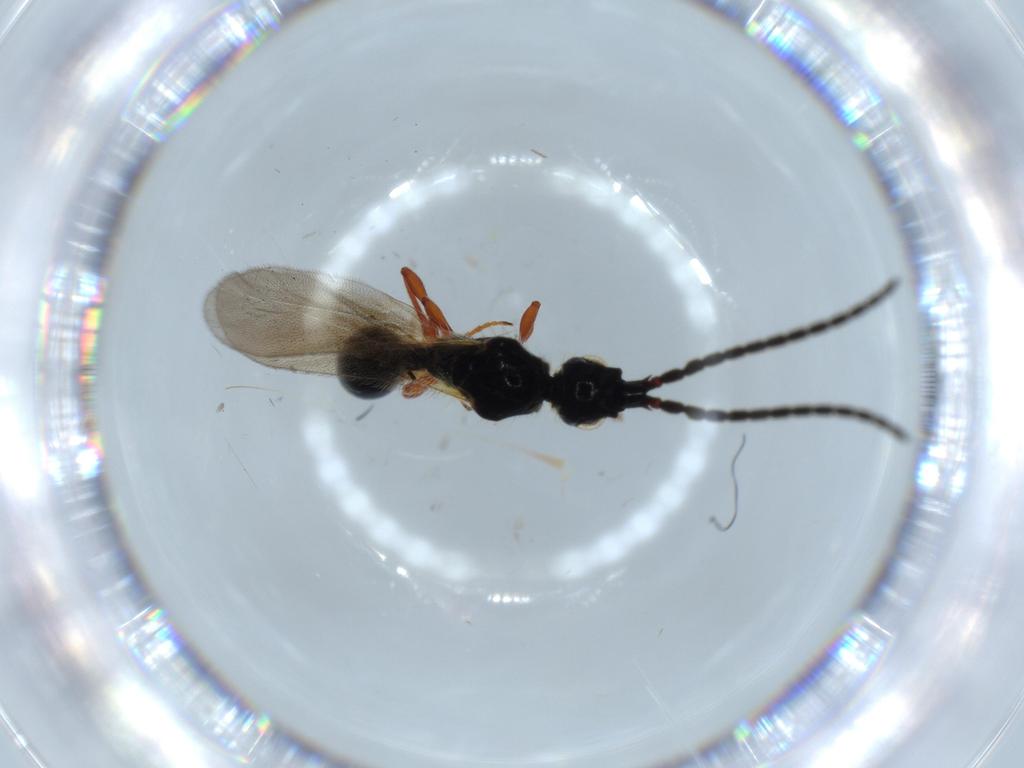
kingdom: Animalia
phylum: Arthropoda
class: Insecta
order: Hymenoptera
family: Diapriidae
